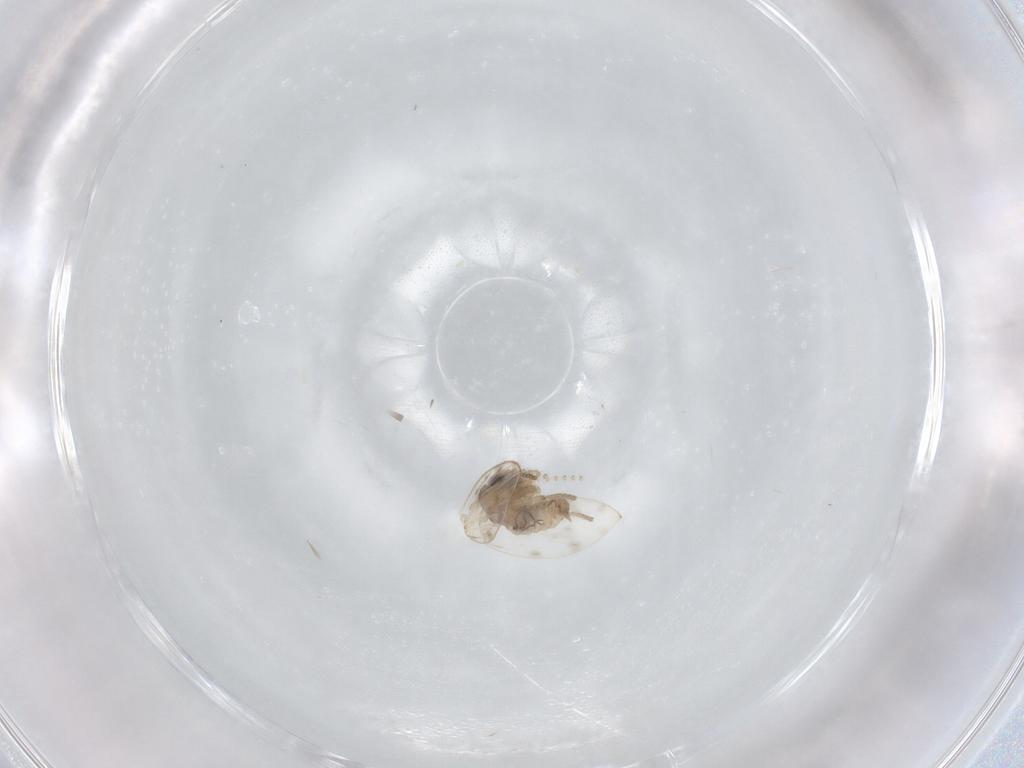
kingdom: Animalia
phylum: Arthropoda
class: Insecta
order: Diptera
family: Psychodidae
